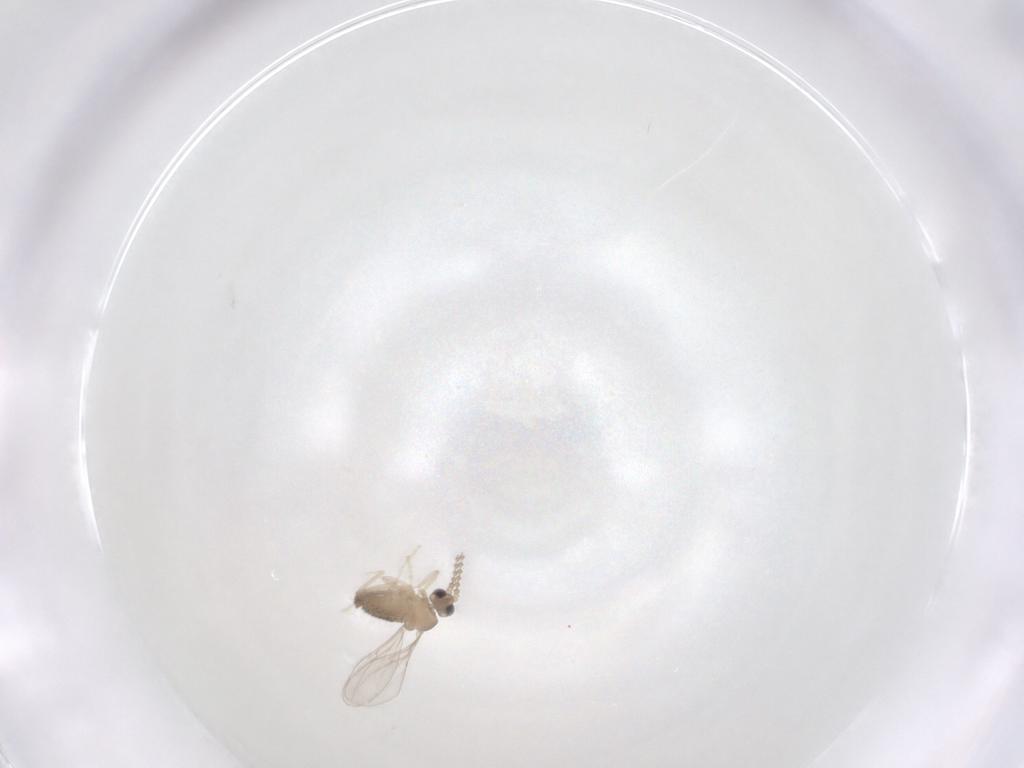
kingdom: Animalia
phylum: Arthropoda
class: Insecta
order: Diptera
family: Cecidomyiidae
